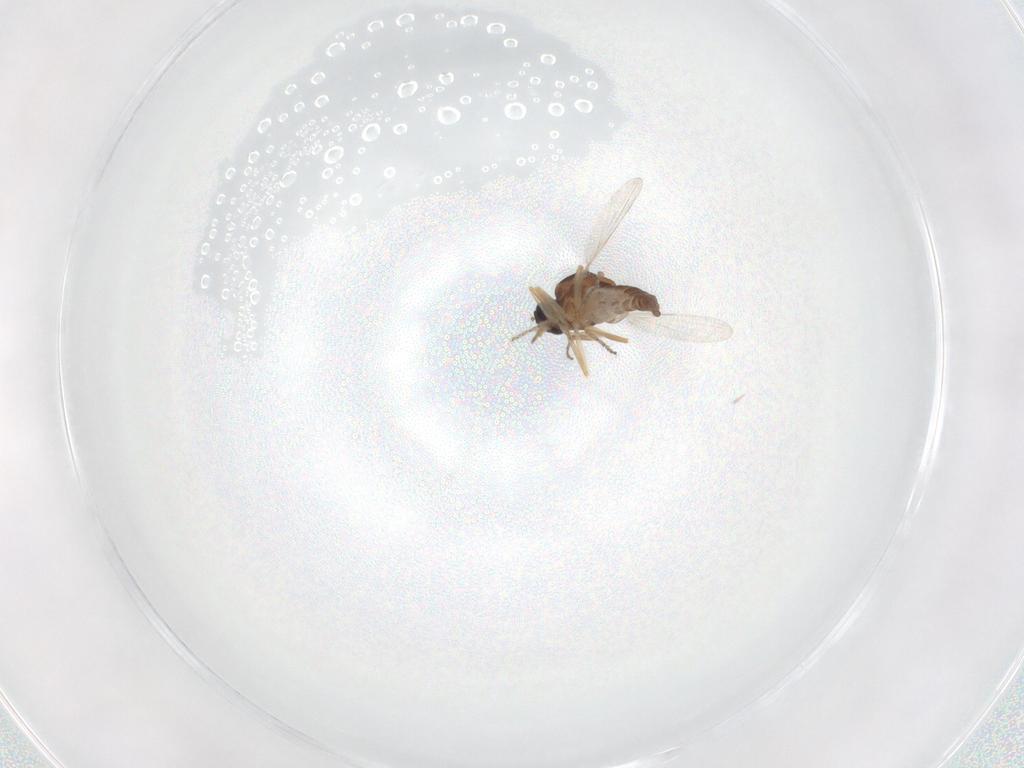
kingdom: Animalia
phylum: Arthropoda
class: Insecta
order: Diptera
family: Ceratopogonidae
